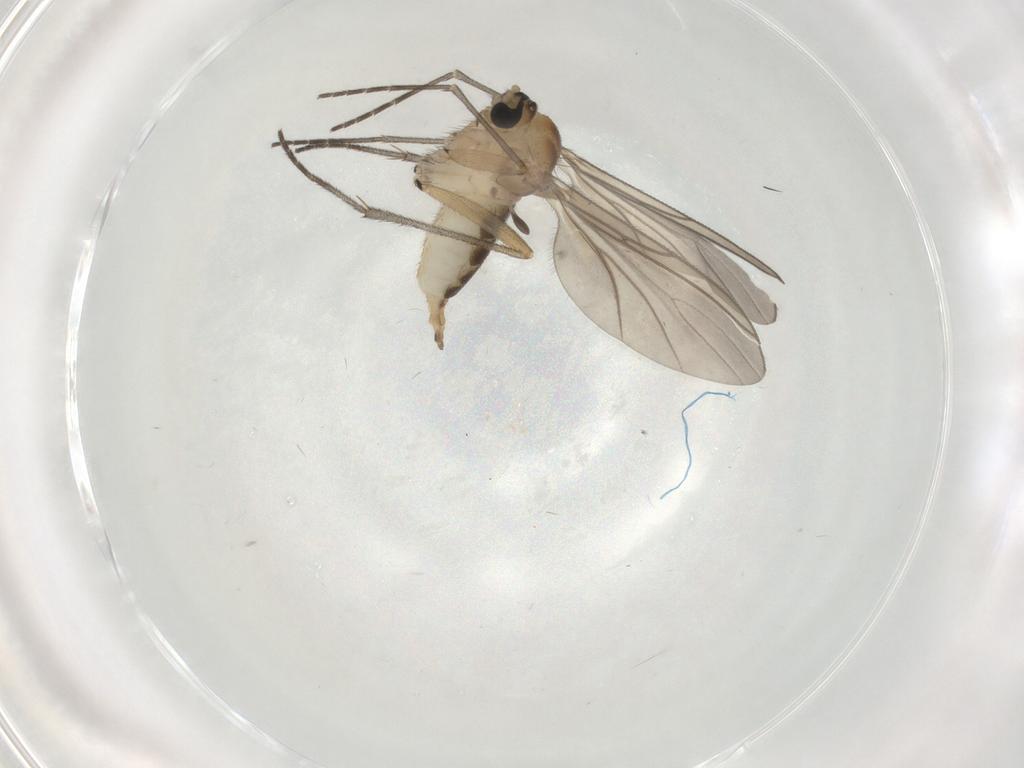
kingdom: Animalia
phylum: Arthropoda
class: Insecta
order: Diptera
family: Sciaridae
